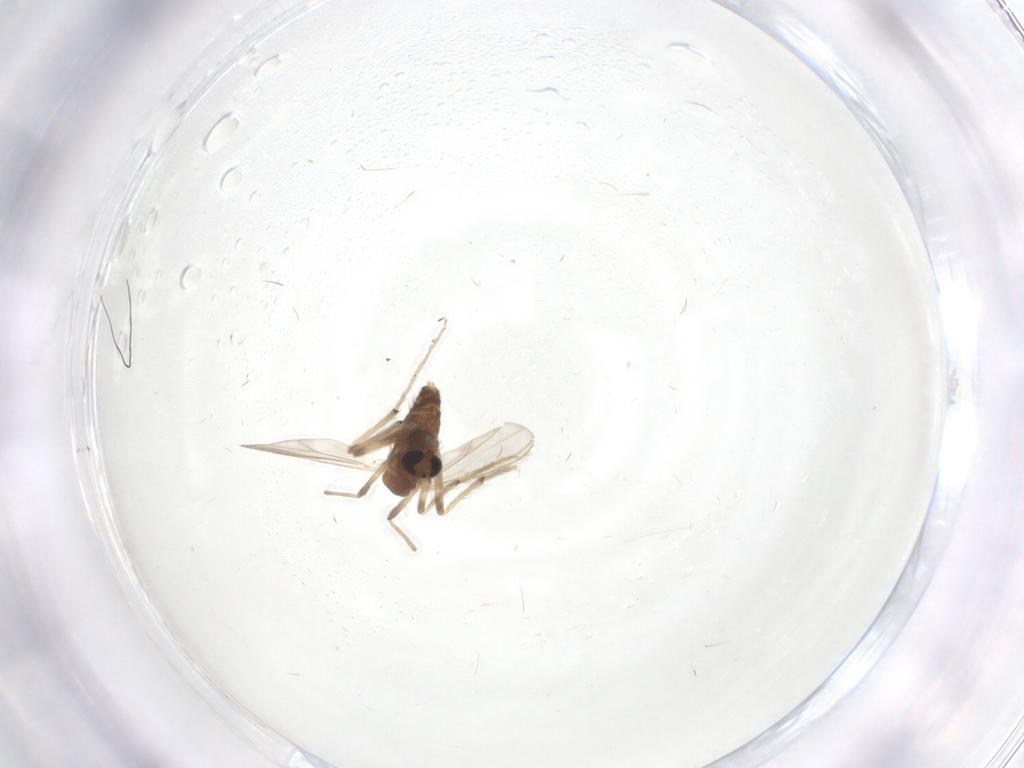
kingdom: Animalia
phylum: Arthropoda
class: Insecta
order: Diptera
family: Chironomidae
